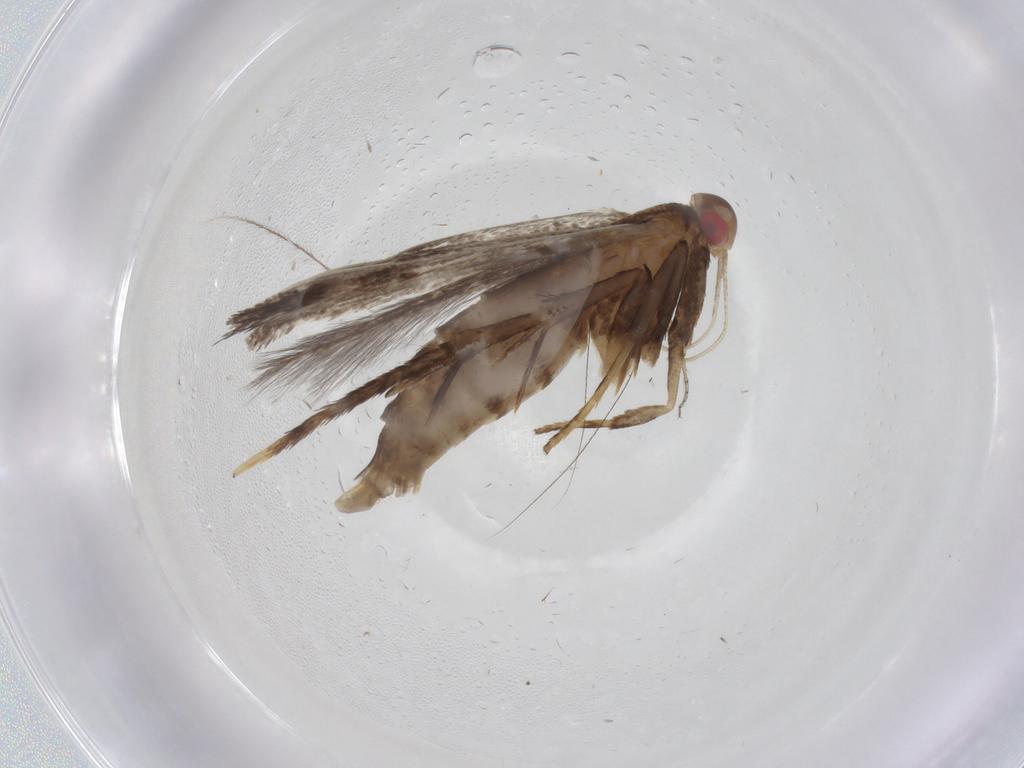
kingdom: Animalia
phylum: Arthropoda
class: Insecta
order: Lepidoptera
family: Gelechiidae
